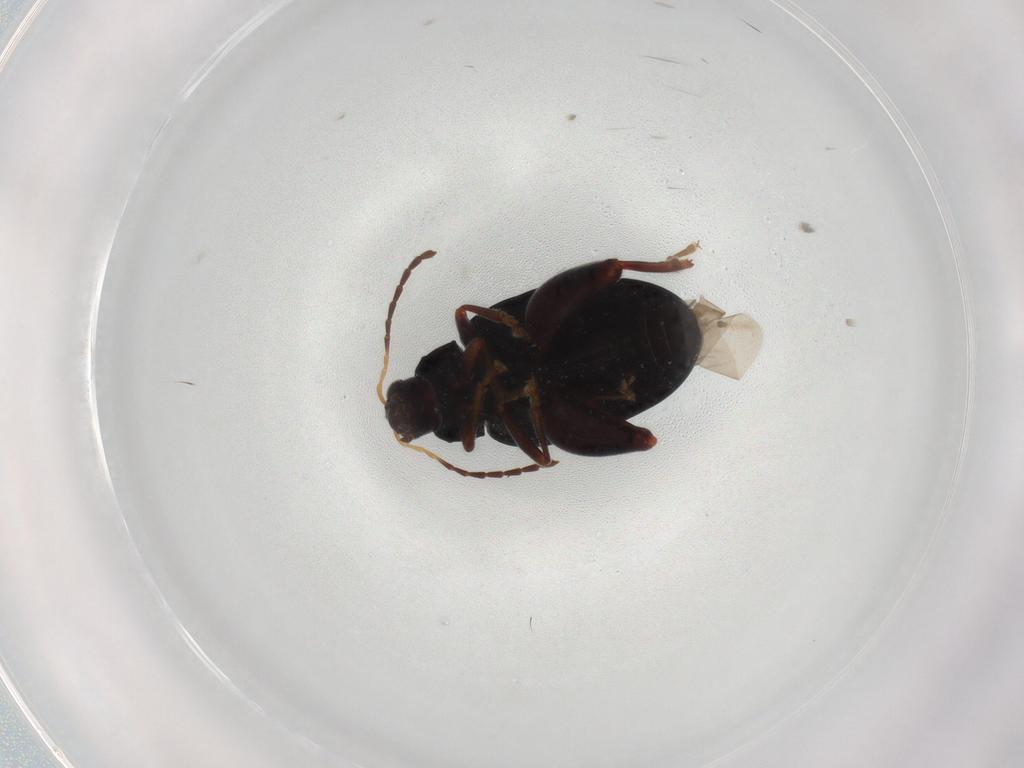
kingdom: Animalia
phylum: Arthropoda
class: Insecta
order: Coleoptera
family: Chrysomelidae
